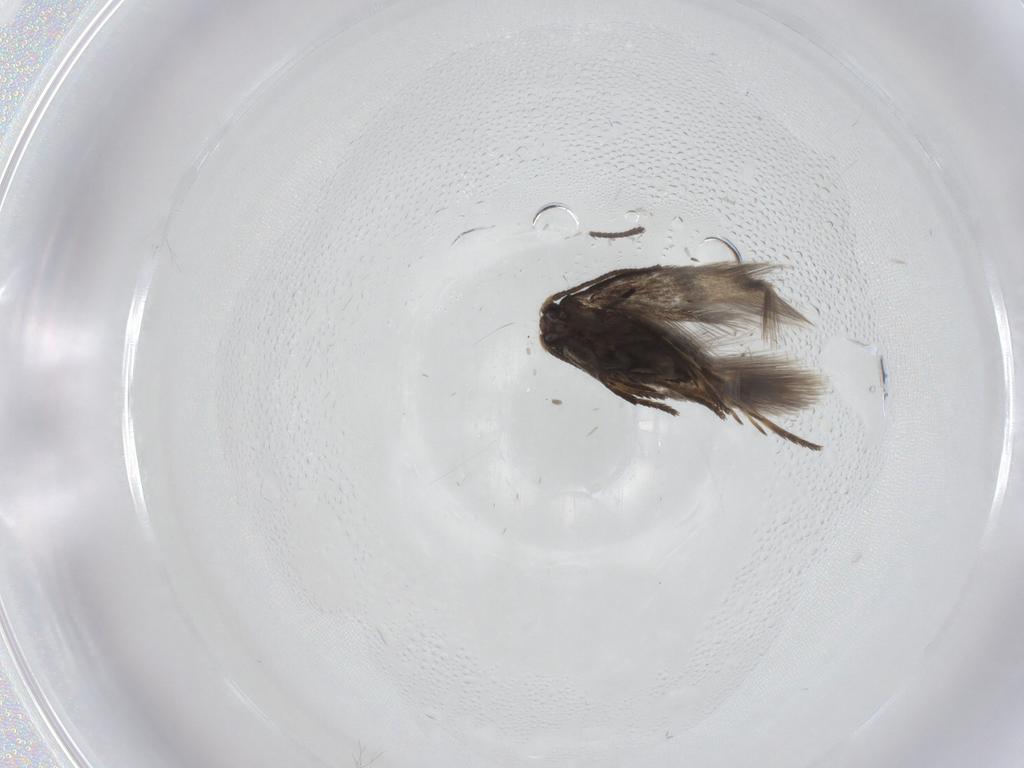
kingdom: Animalia
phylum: Arthropoda
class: Insecta
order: Lepidoptera
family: Nepticulidae
